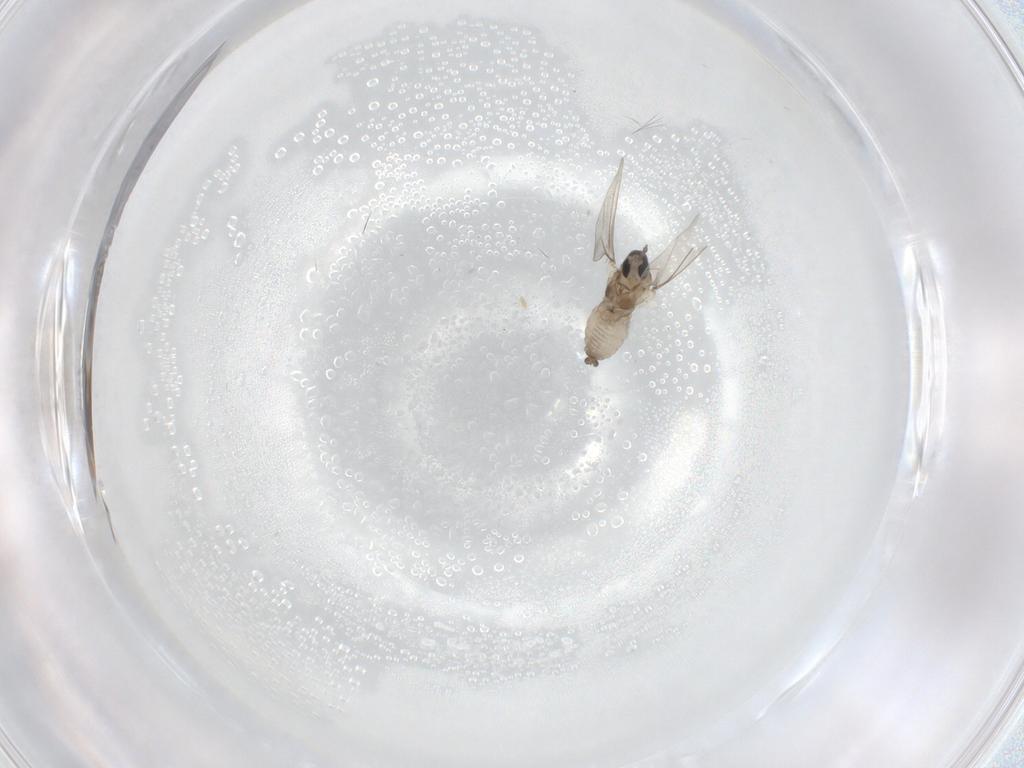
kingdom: Animalia
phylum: Arthropoda
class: Insecta
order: Diptera
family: Cecidomyiidae
